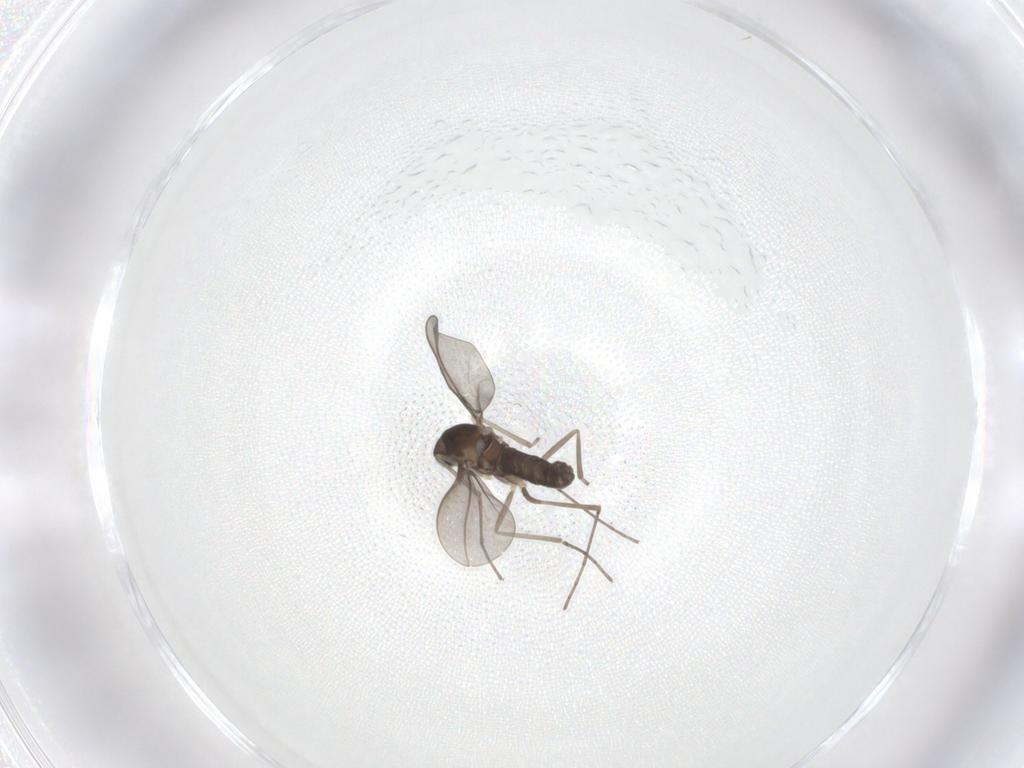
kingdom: Animalia
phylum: Arthropoda
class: Insecta
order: Diptera
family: Cecidomyiidae
